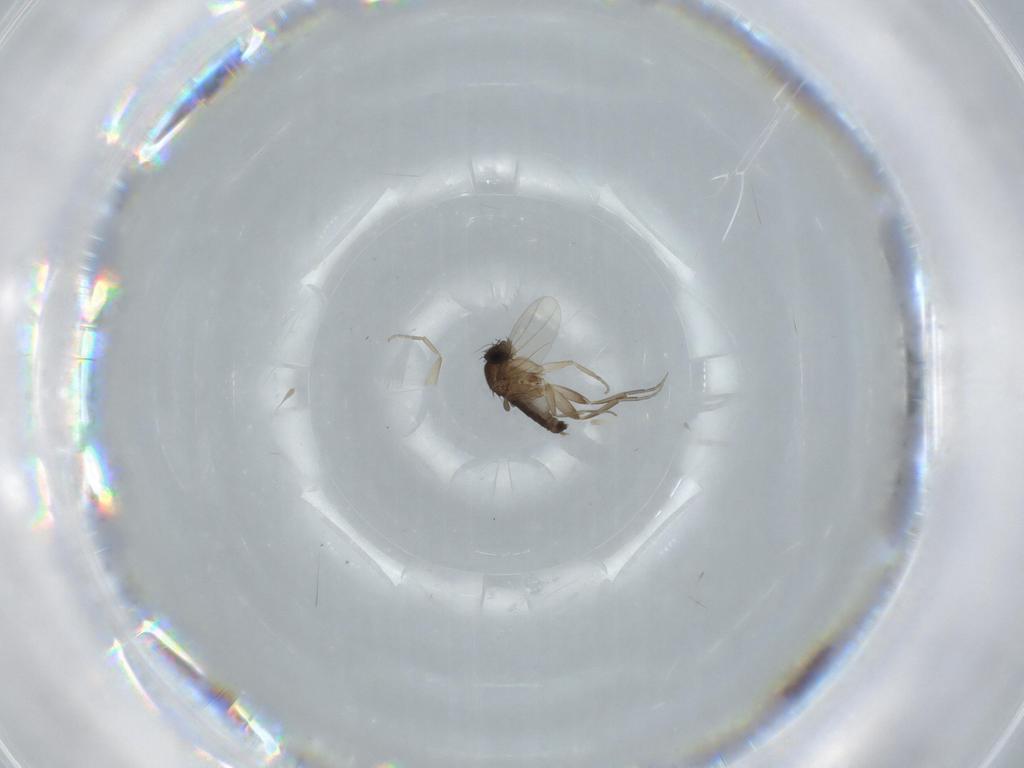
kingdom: Animalia
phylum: Arthropoda
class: Insecta
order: Diptera
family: Phoridae
